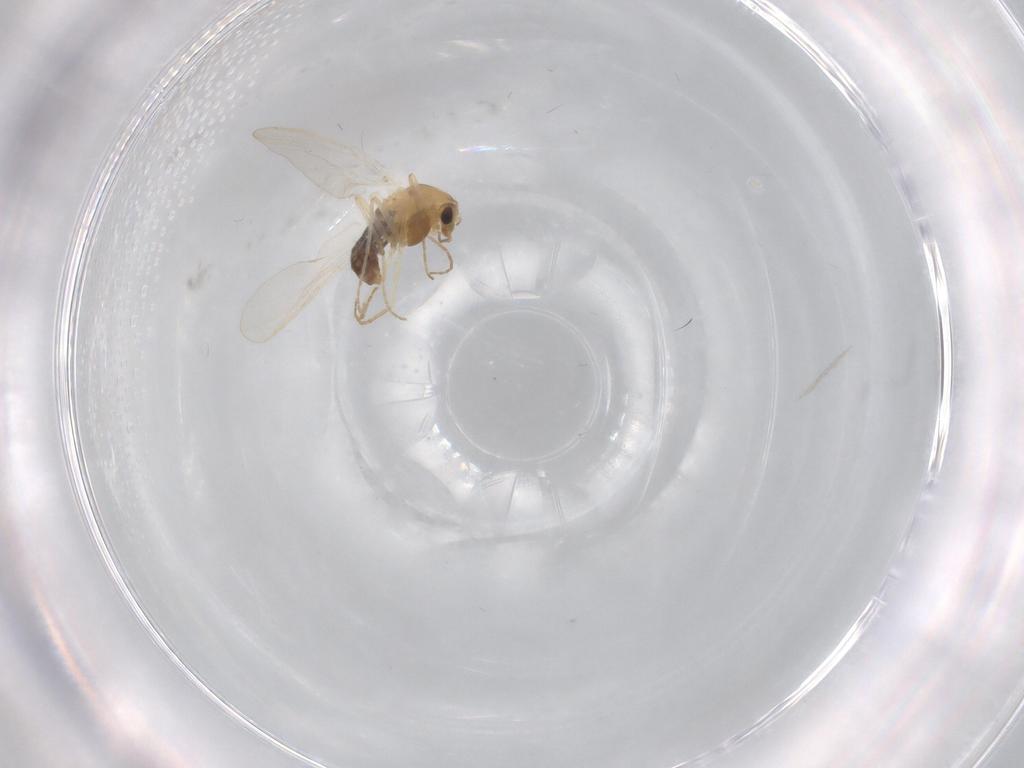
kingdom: Animalia
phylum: Arthropoda
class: Insecta
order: Diptera
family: Chironomidae
